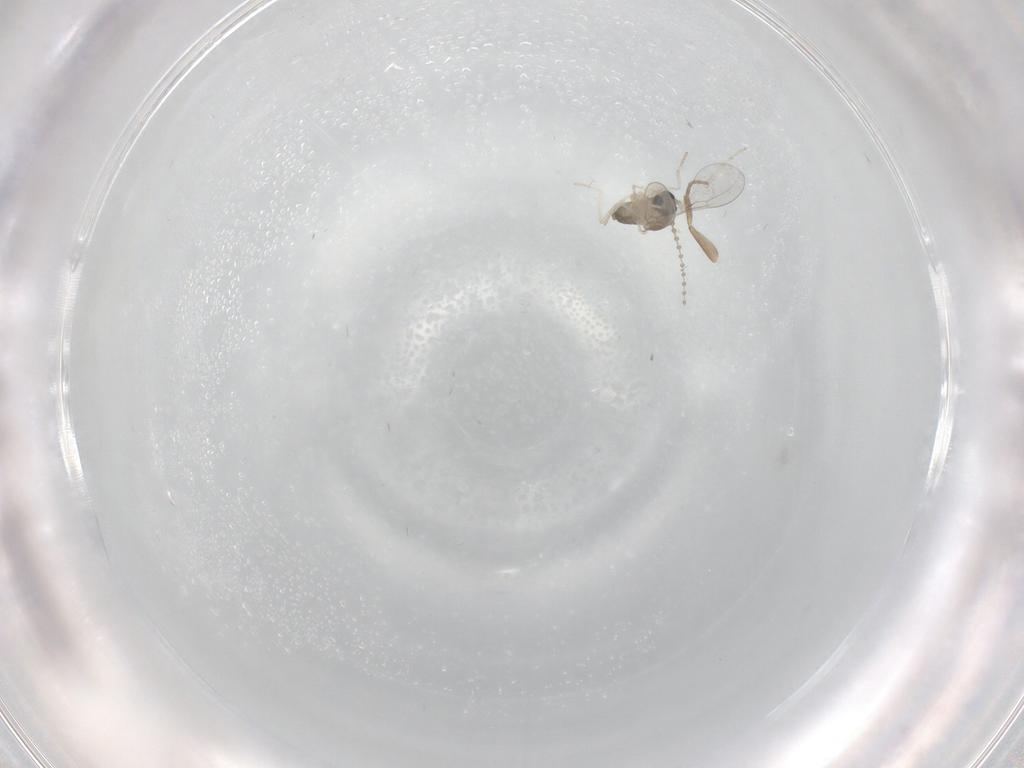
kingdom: Animalia
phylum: Arthropoda
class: Insecta
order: Diptera
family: Cecidomyiidae
